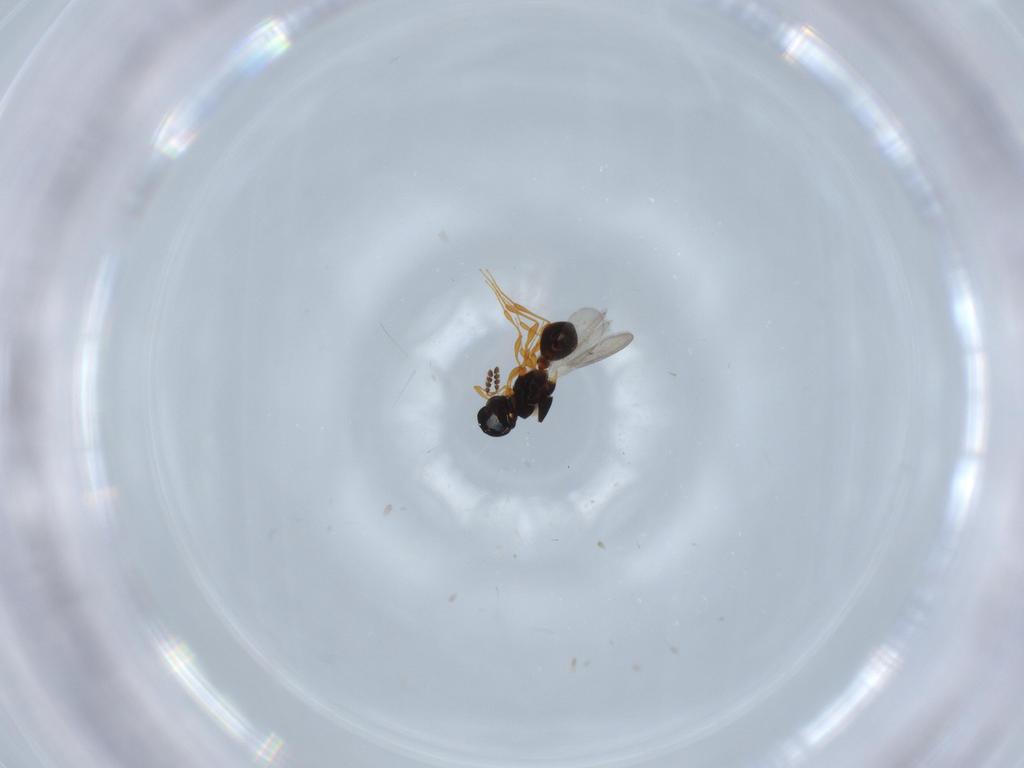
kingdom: Animalia
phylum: Arthropoda
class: Insecta
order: Hymenoptera
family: Platygastridae
